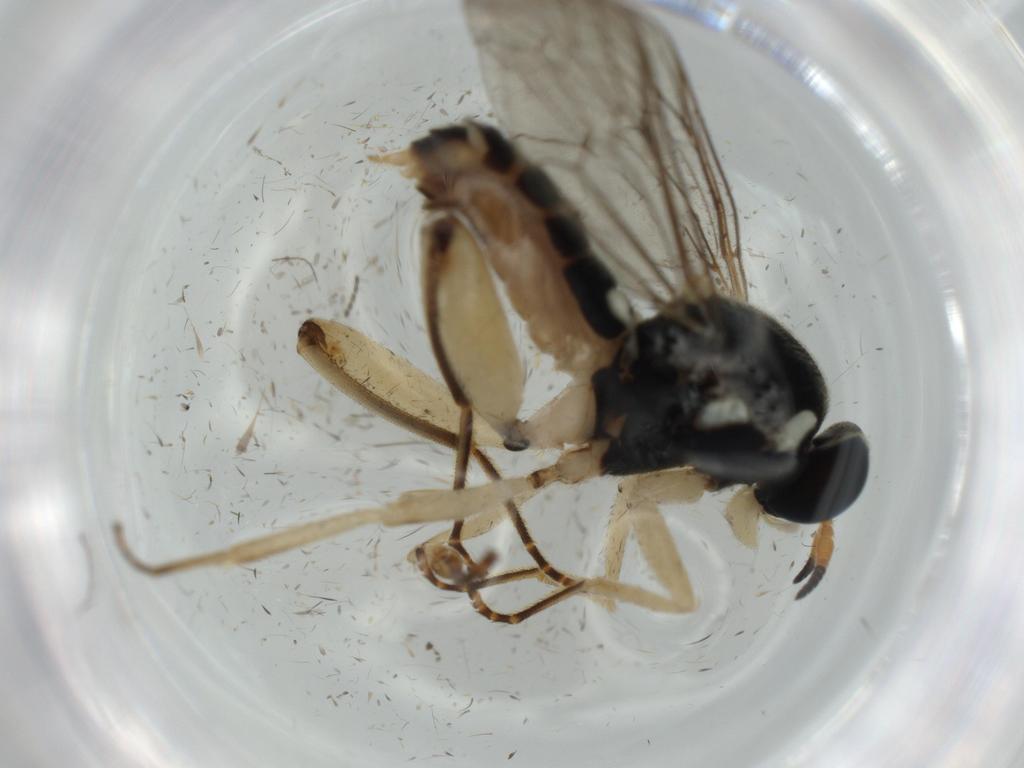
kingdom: Animalia
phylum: Arthropoda
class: Insecta
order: Diptera
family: Sciaridae
